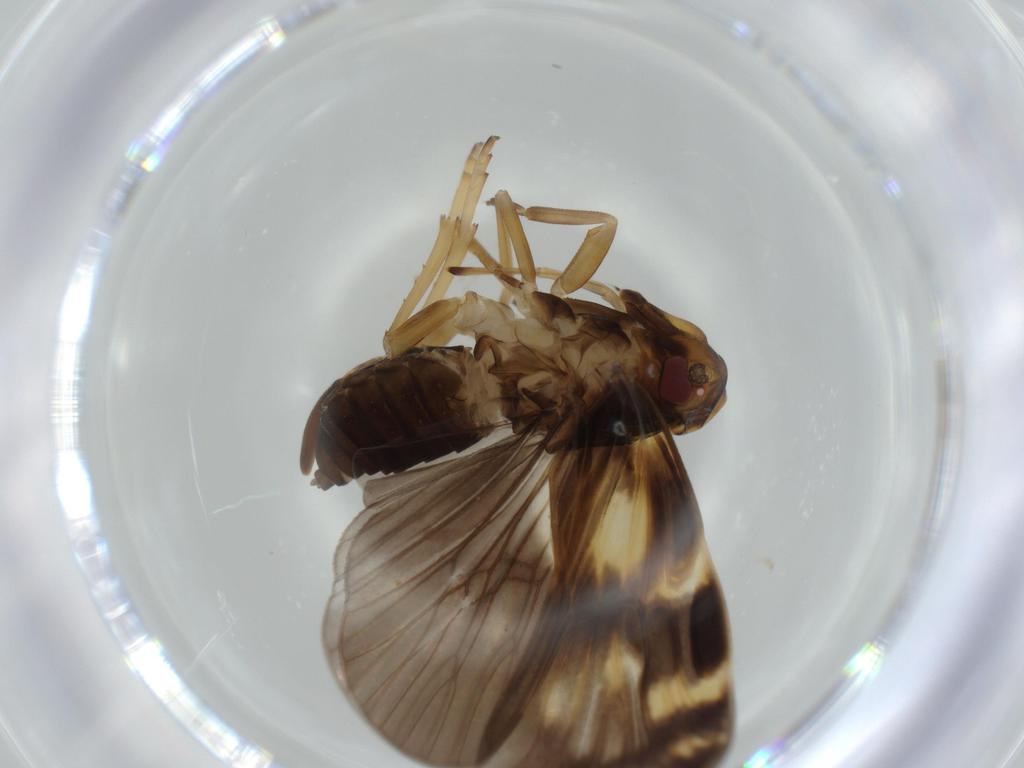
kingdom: Animalia
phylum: Arthropoda
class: Insecta
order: Hemiptera
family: Cixiidae
